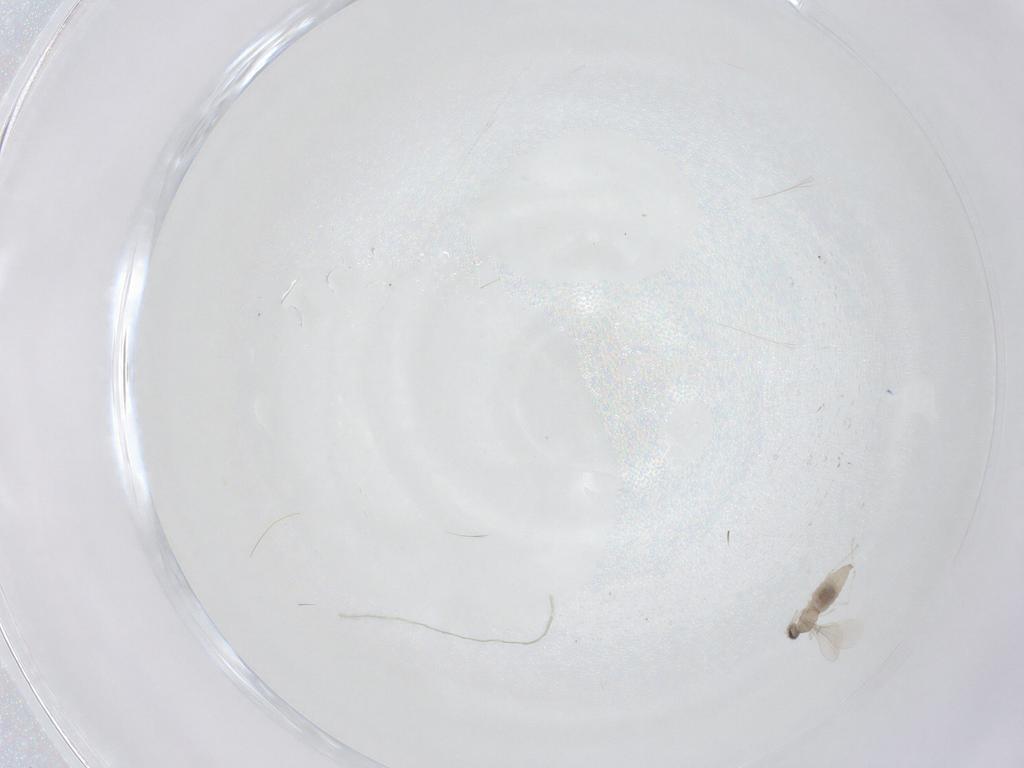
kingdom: Animalia
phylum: Arthropoda
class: Insecta
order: Diptera
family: Cecidomyiidae
